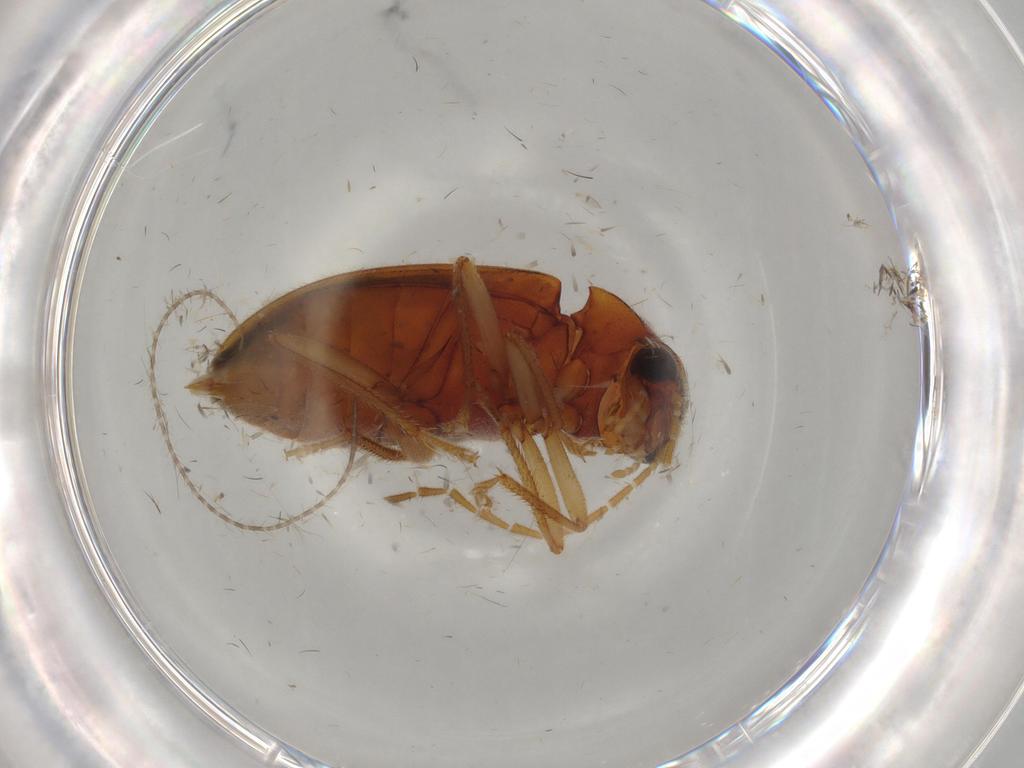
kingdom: Animalia
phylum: Arthropoda
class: Insecta
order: Coleoptera
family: Ptilodactylidae
